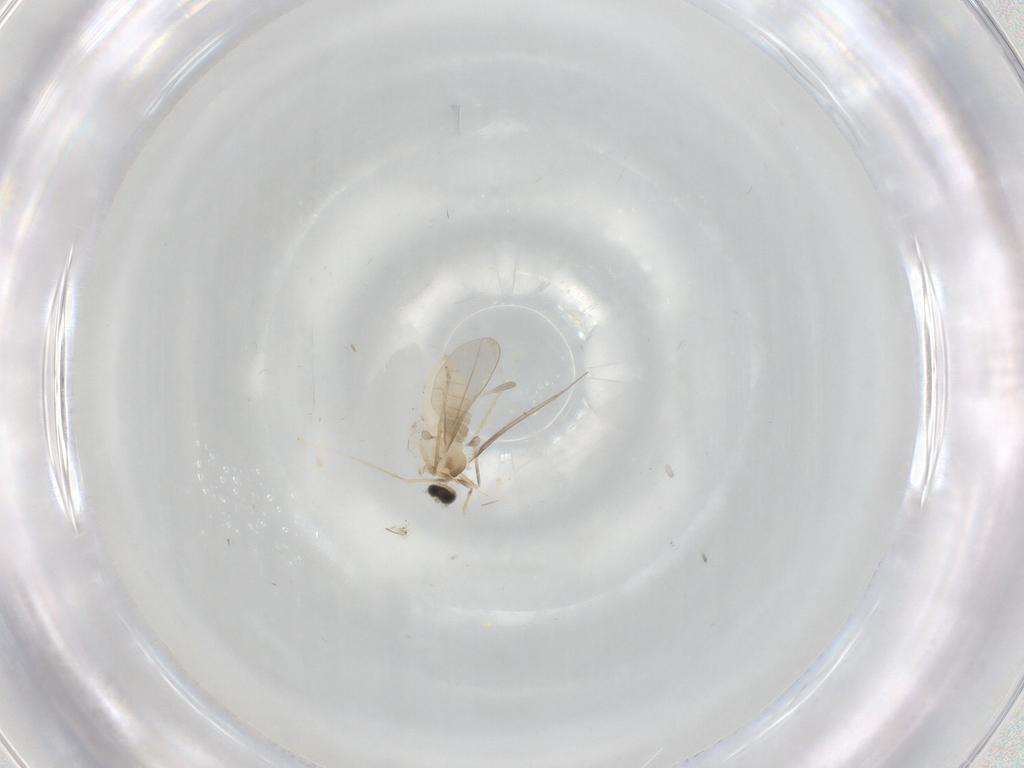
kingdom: Animalia
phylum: Arthropoda
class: Insecta
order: Diptera
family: Cecidomyiidae
